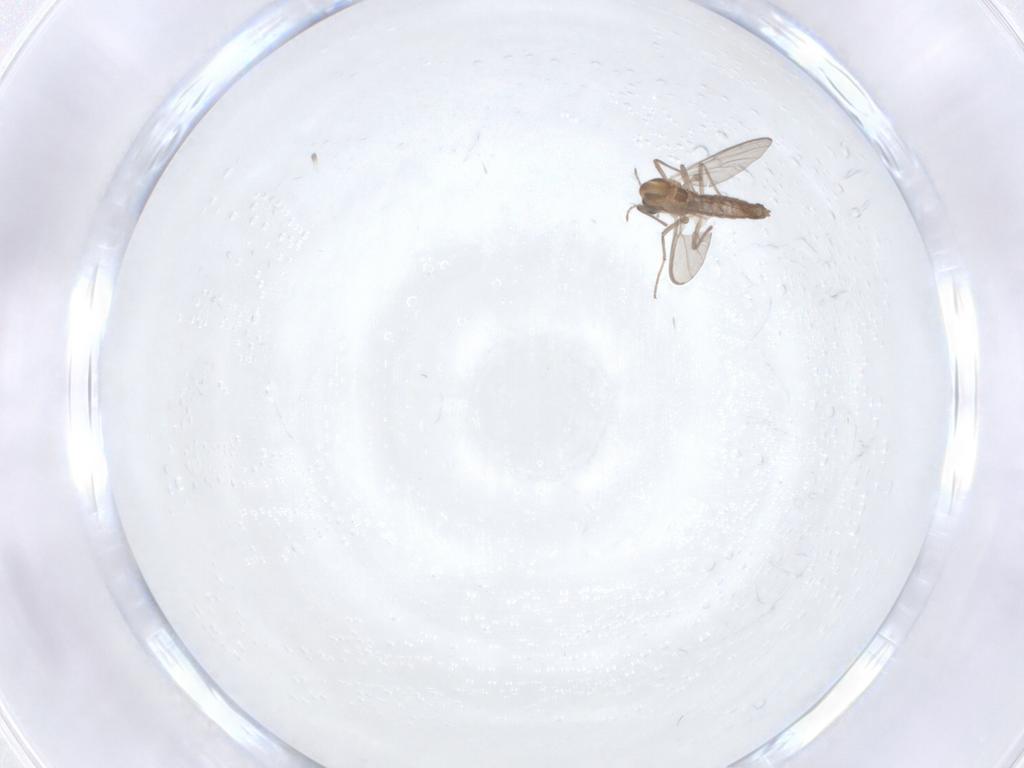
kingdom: Animalia
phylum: Arthropoda
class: Insecta
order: Diptera
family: Chironomidae
